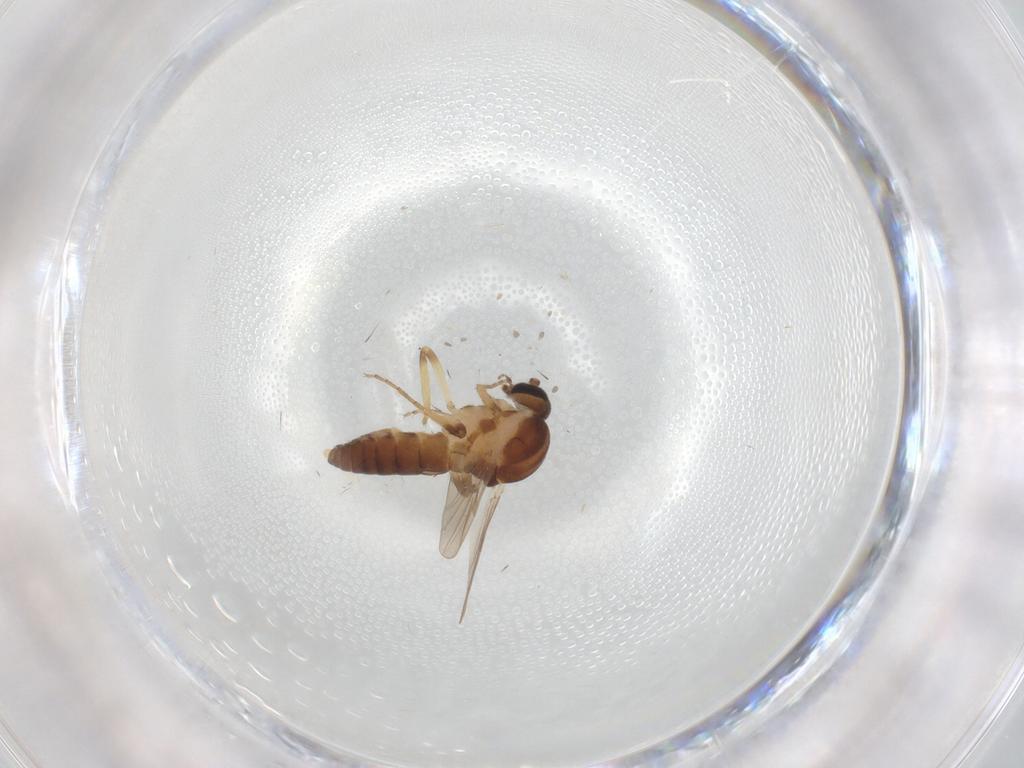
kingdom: Animalia
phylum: Arthropoda
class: Insecta
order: Diptera
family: Ceratopogonidae
